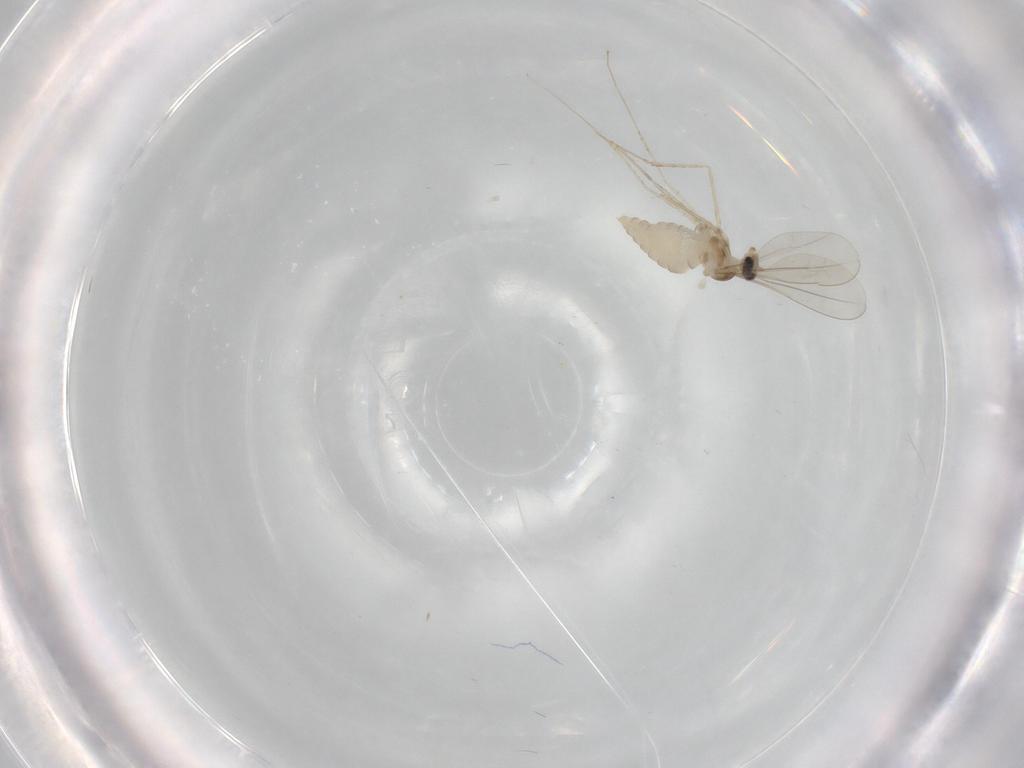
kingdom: Animalia
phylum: Arthropoda
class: Insecta
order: Diptera
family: Cecidomyiidae
